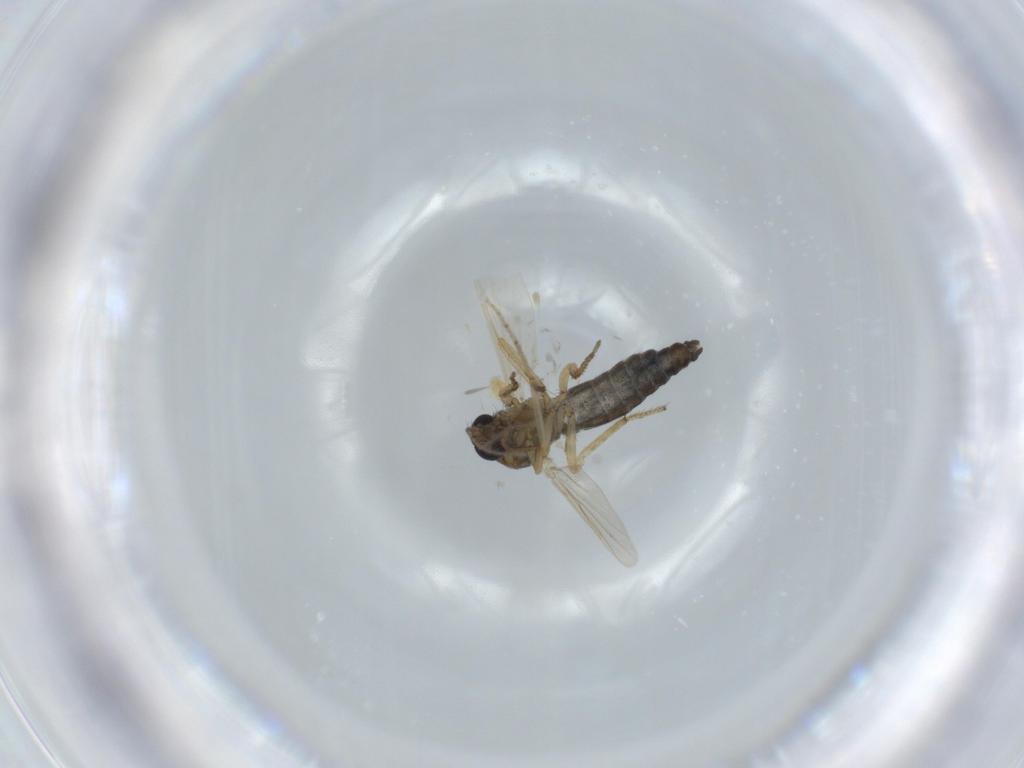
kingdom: Animalia
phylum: Arthropoda
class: Insecta
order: Diptera
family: Ceratopogonidae
